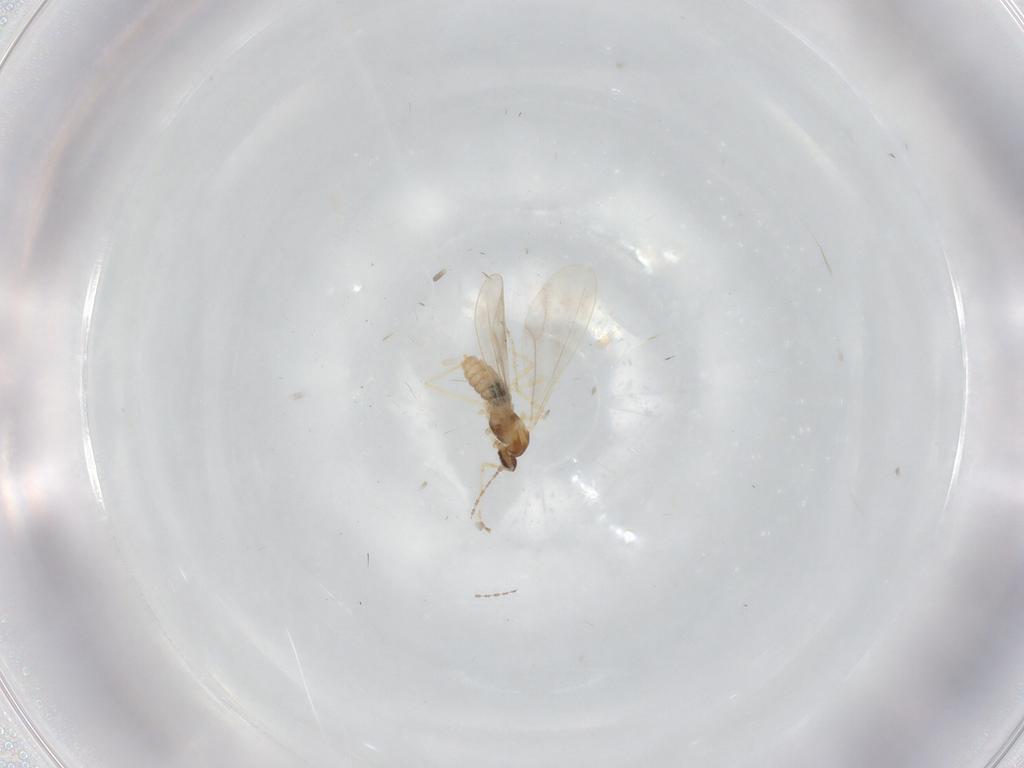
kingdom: Animalia
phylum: Arthropoda
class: Insecta
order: Diptera
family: Cecidomyiidae
